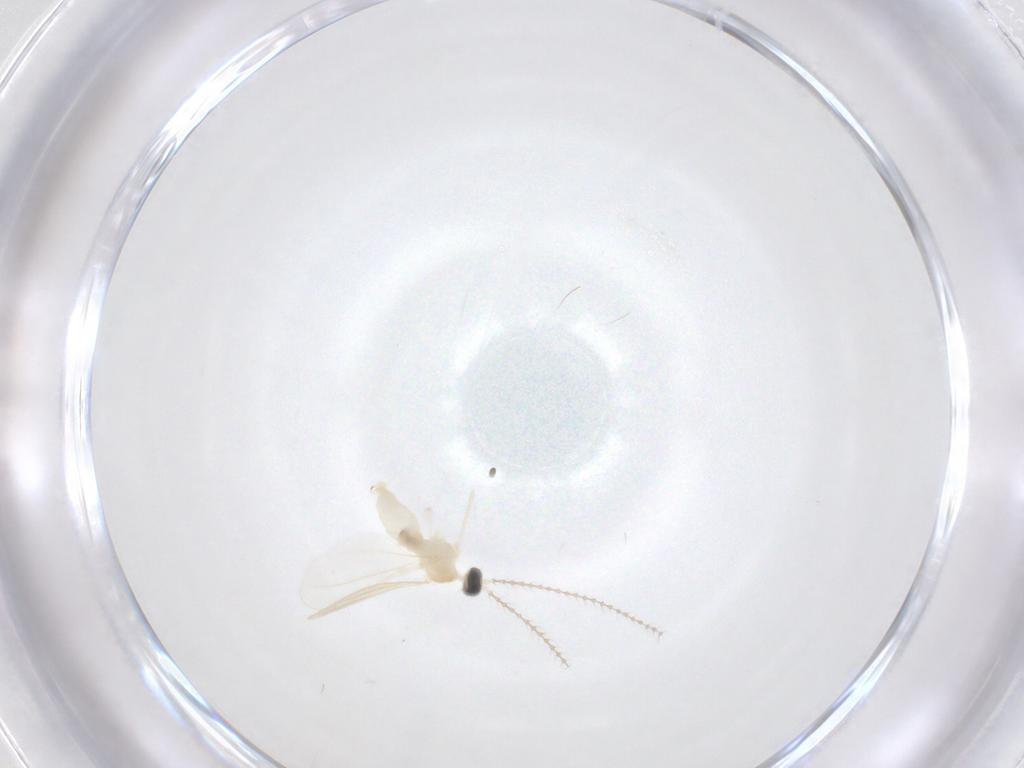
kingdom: Animalia
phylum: Arthropoda
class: Insecta
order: Diptera
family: Cecidomyiidae
